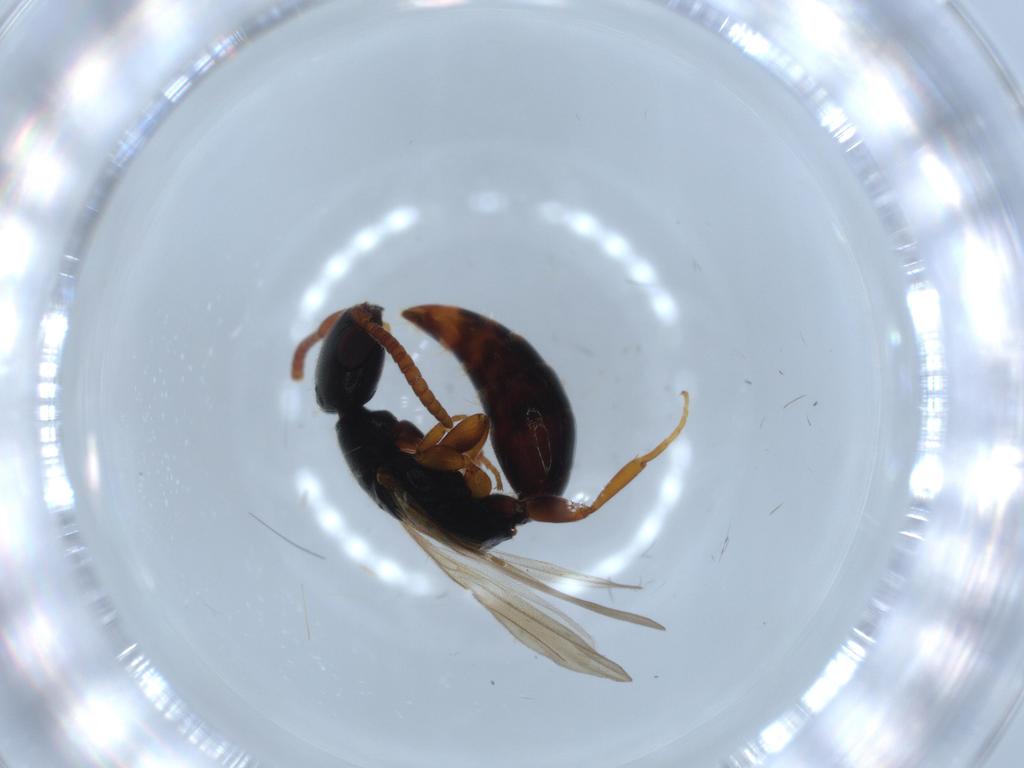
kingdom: Animalia
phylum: Arthropoda
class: Insecta
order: Hymenoptera
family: Bethylidae
